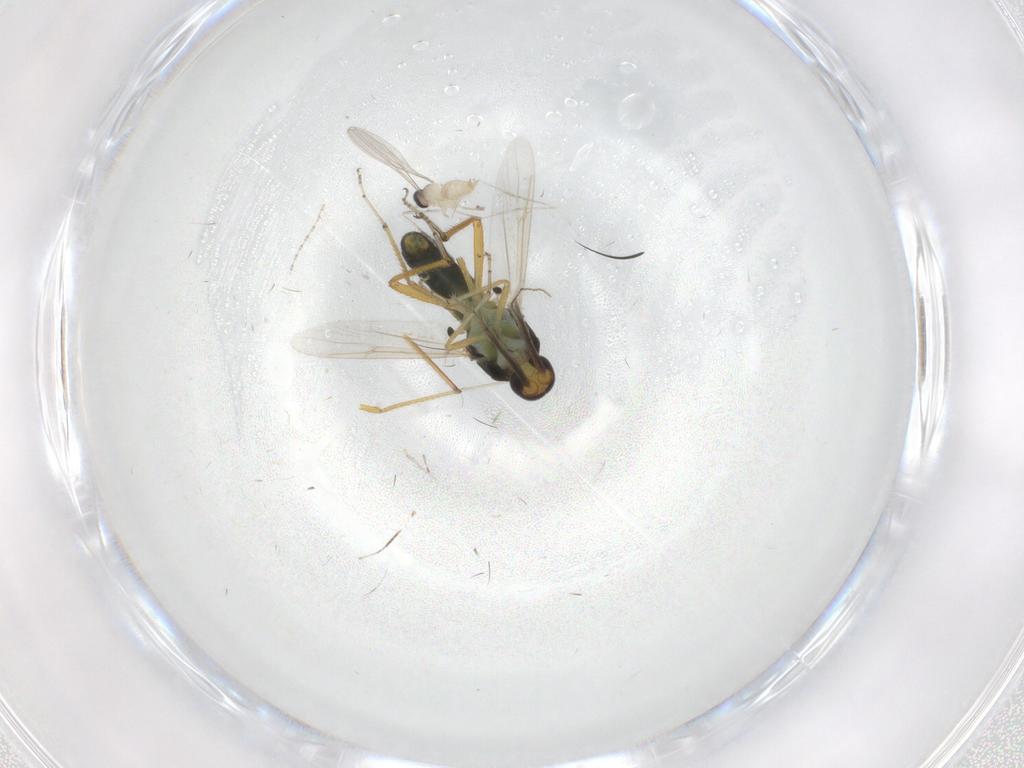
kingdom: Animalia
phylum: Arthropoda
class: Insecta
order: Diptera
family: Ceratopogonidae
